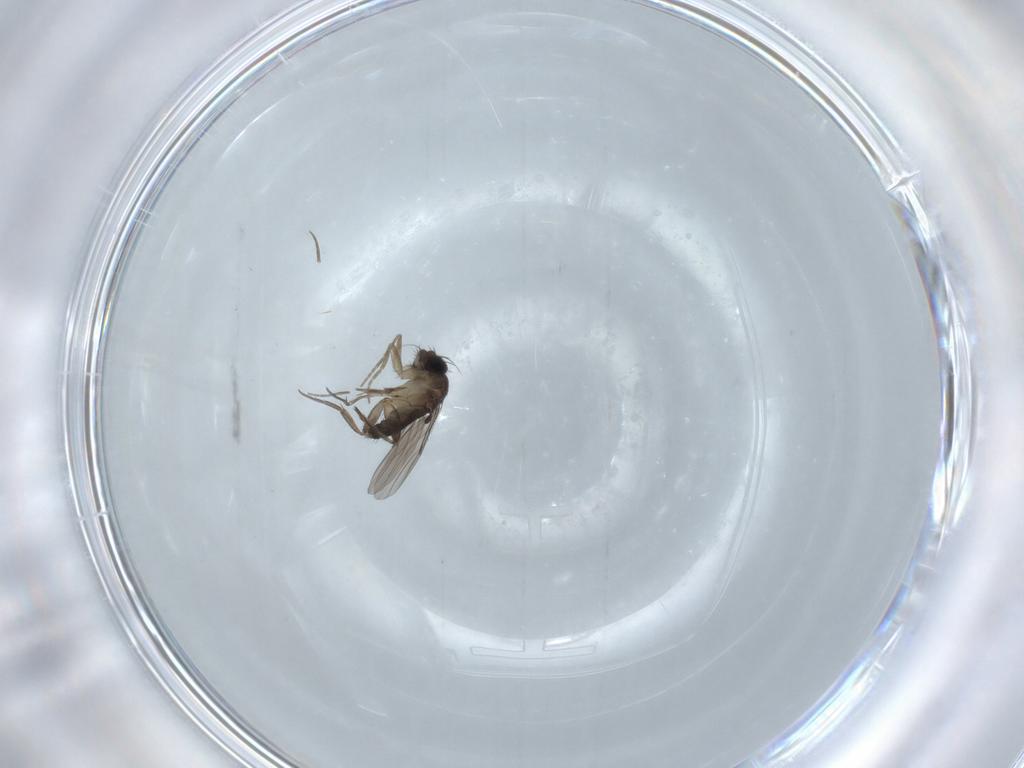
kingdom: Animalia
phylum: Arthropoda
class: Insecta
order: Diptera
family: Phoridae
